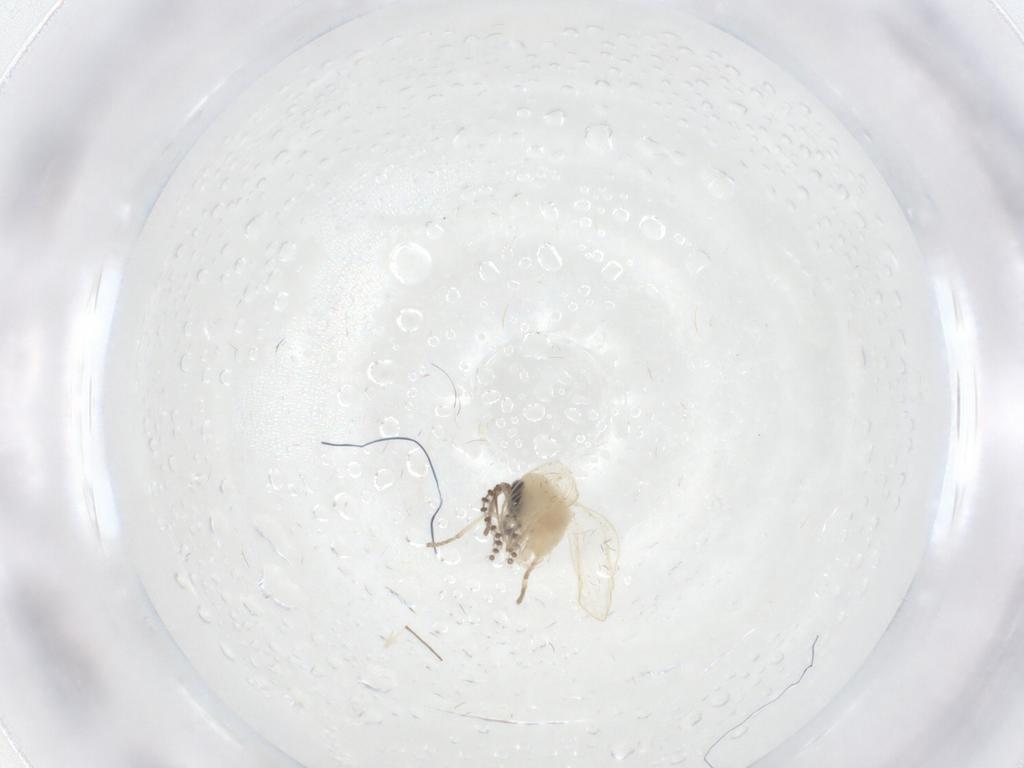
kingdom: Animalia
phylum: Arthropoda
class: Insecta
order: Diptera
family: Psychodidae
